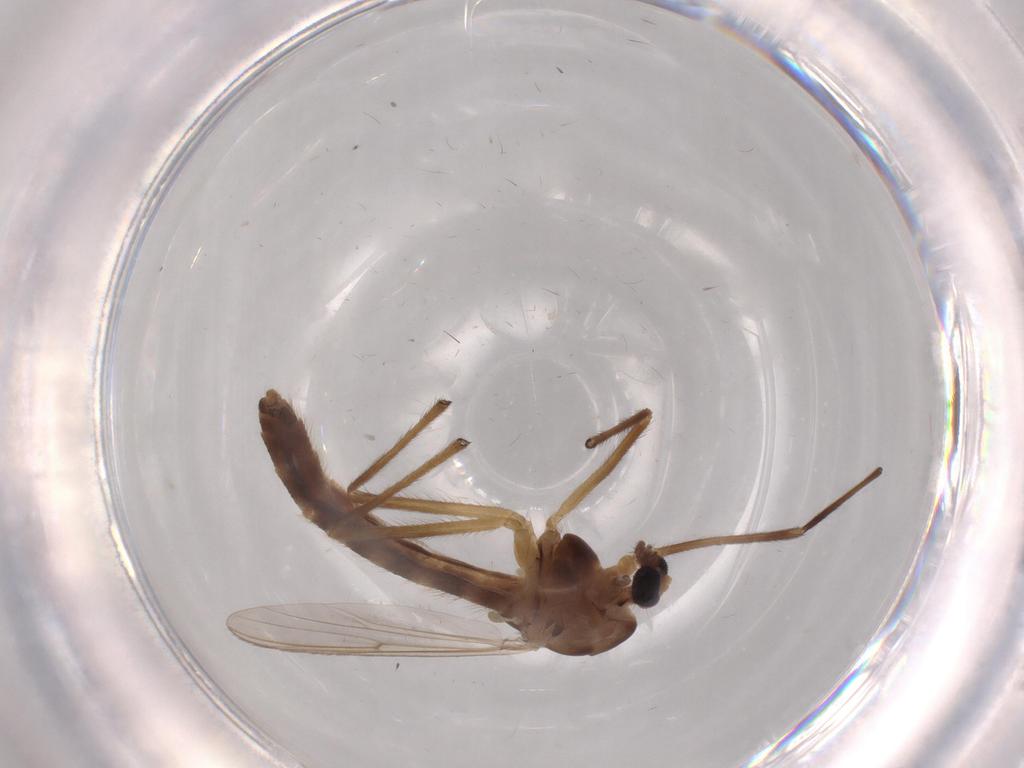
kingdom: Animalia
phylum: Arthropoda
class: Insecta
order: Diptera
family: Chironomidae
